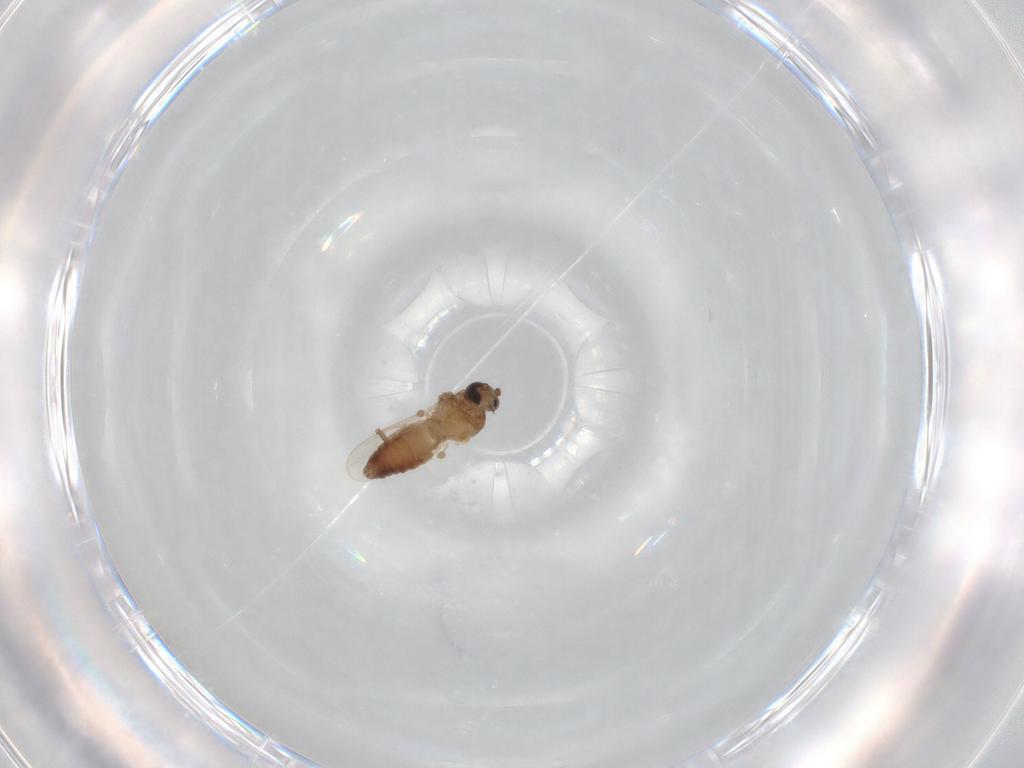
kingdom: Animalia
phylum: Arthropoda
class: Insecta
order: Diptera
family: Ceratopogonidae
